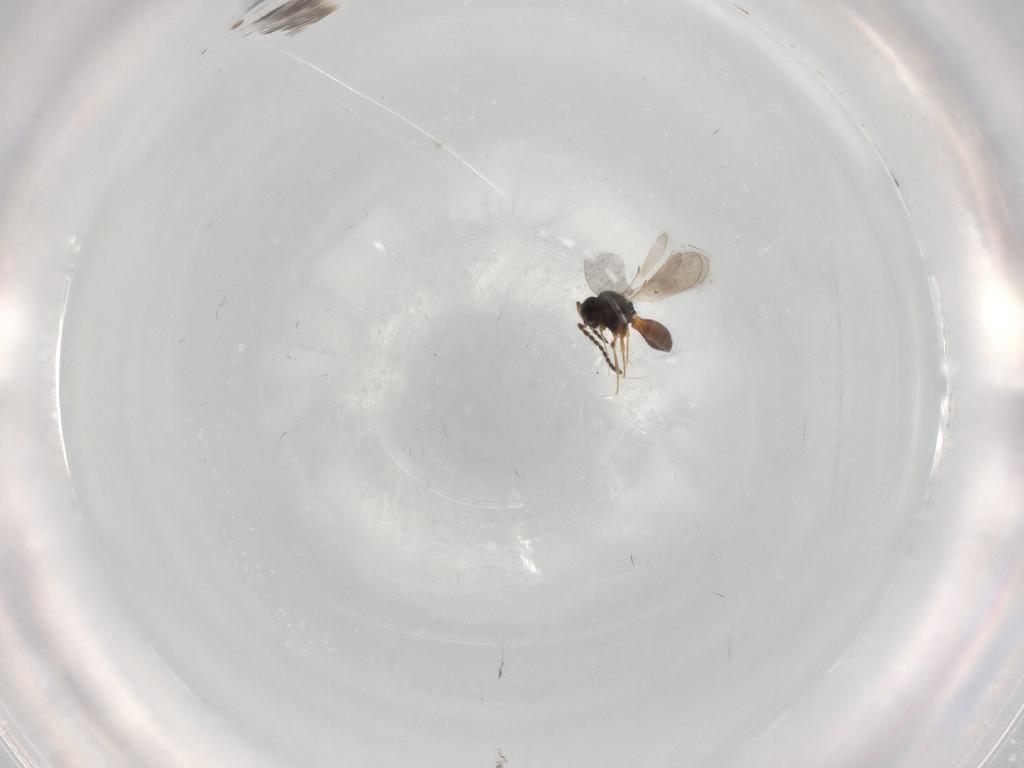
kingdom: Animalia
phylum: Arthropoda
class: Insecta
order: Hymenoptera
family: Scelionidae
